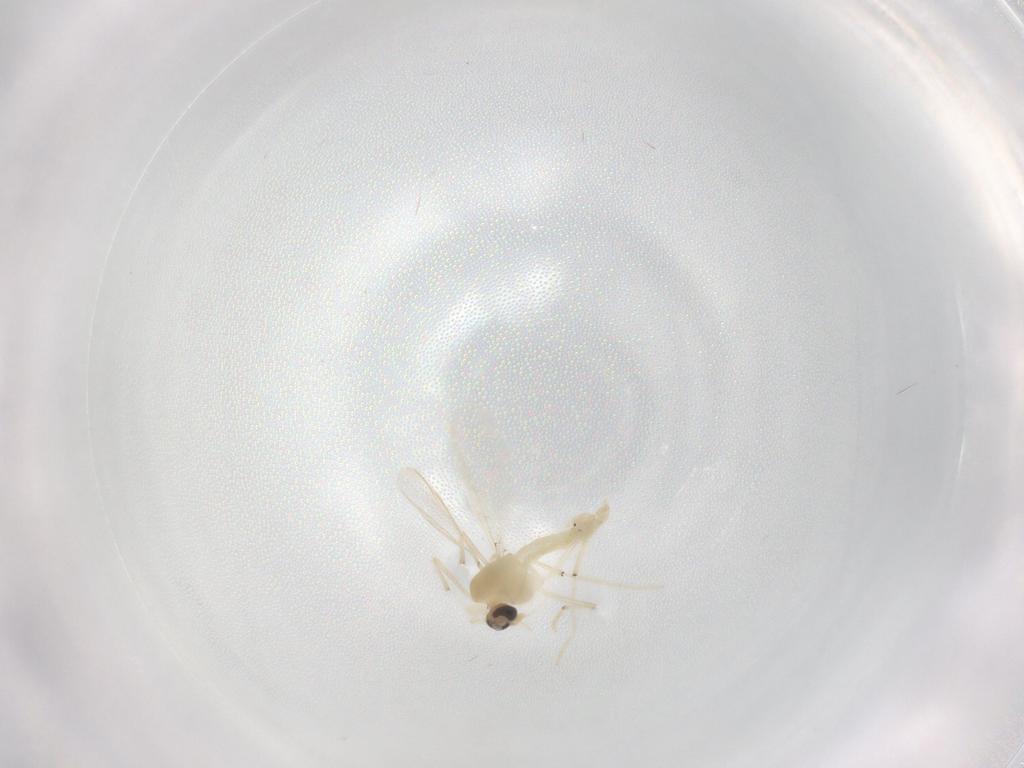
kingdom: Animalia
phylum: Arthropoda
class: Insecta
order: Diptera
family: Chironomidae
